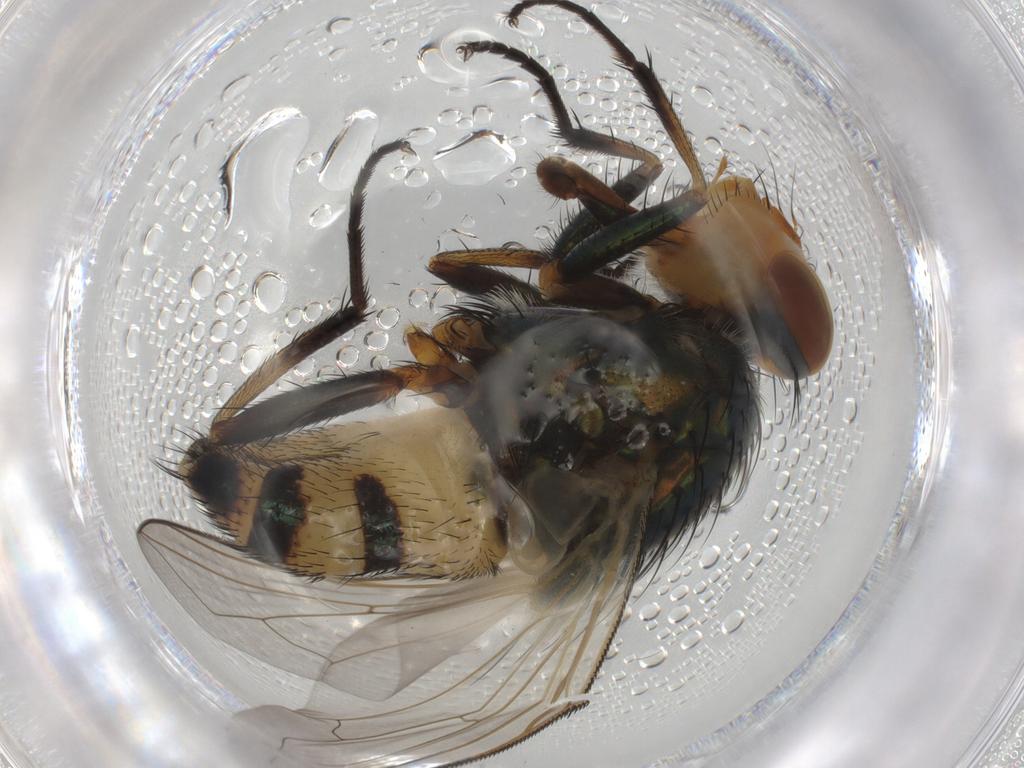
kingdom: Animalia
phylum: Arthropoda
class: Insecta
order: Diptera
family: Calliphoridae
